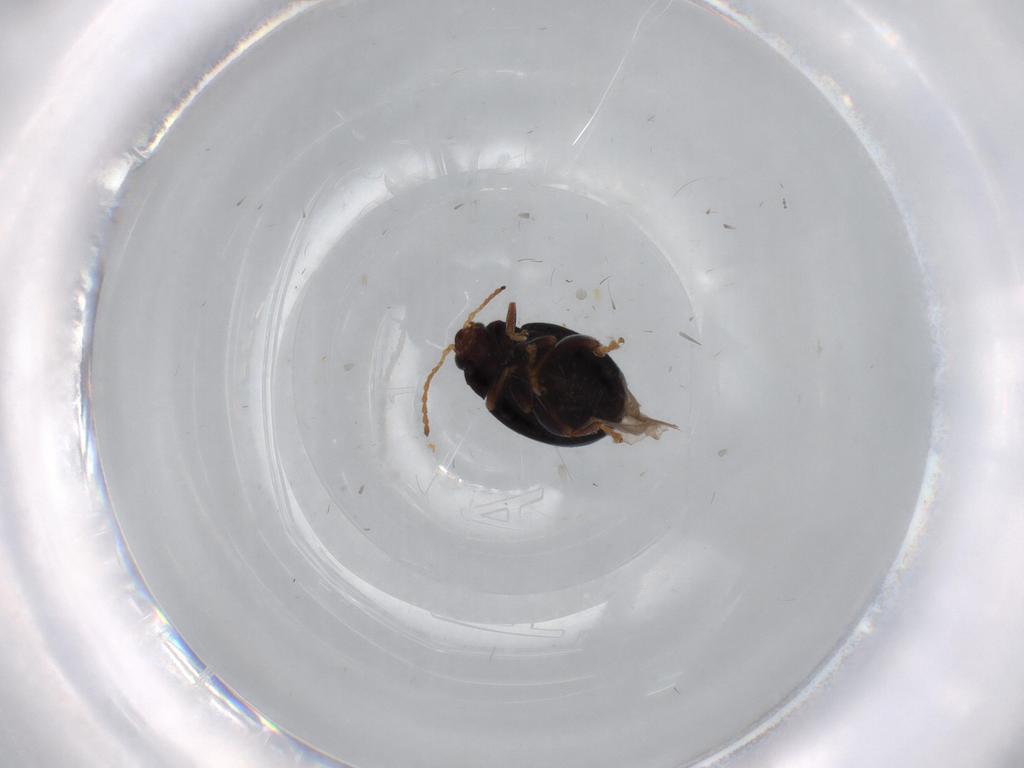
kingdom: Animalia
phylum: Arthropoda
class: Insecta
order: Coleoptera
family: Chrysomelidae
